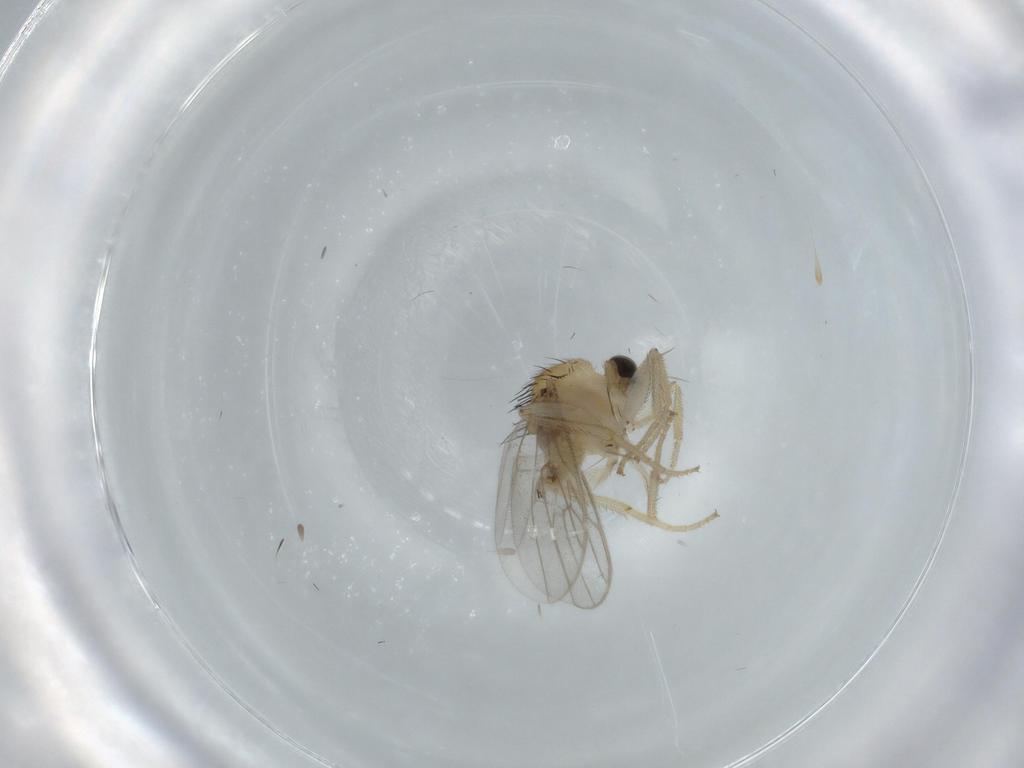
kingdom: Animalia
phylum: Arthropoda
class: Insecta
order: Diptera
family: Hybotidae
